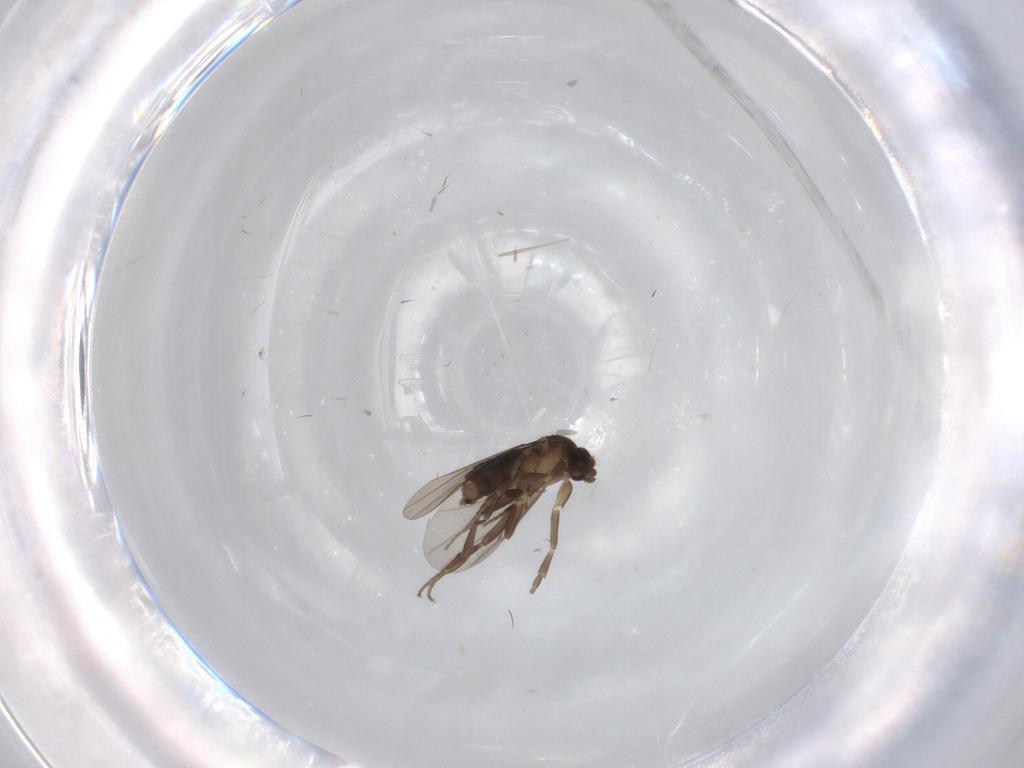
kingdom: Animalia
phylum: Arthropoda
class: Insecta
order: Diptera
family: Phoridae
